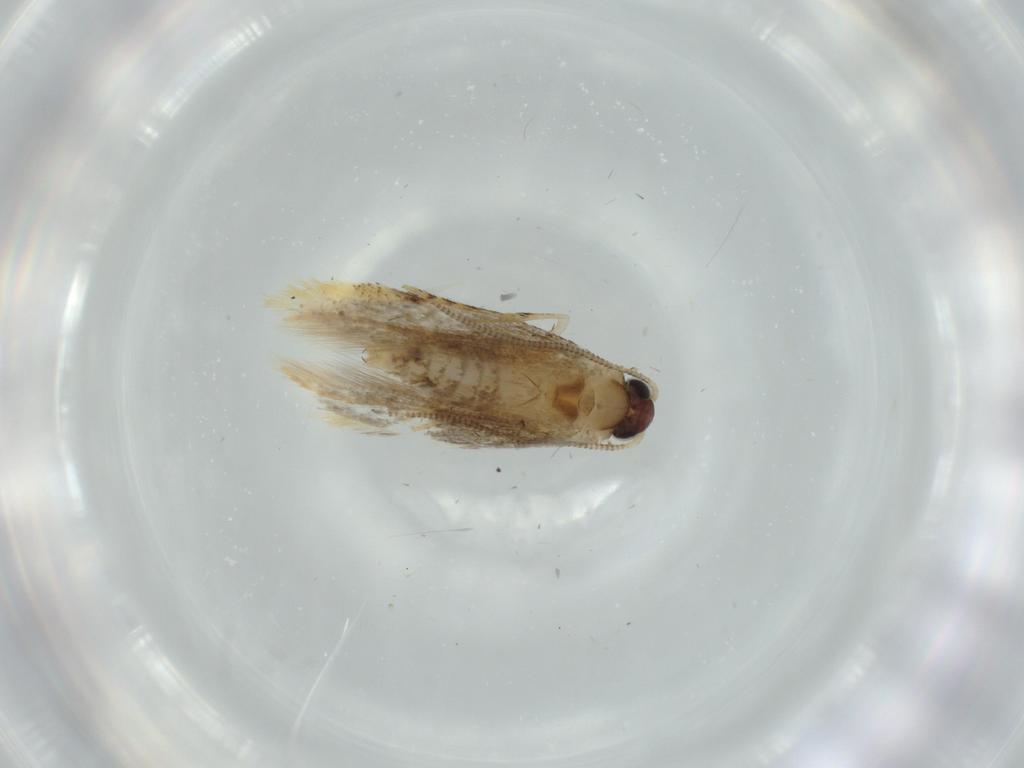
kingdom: Animalia
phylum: Arthropoda
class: Insecta
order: Lepidoptera
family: Tineidae
